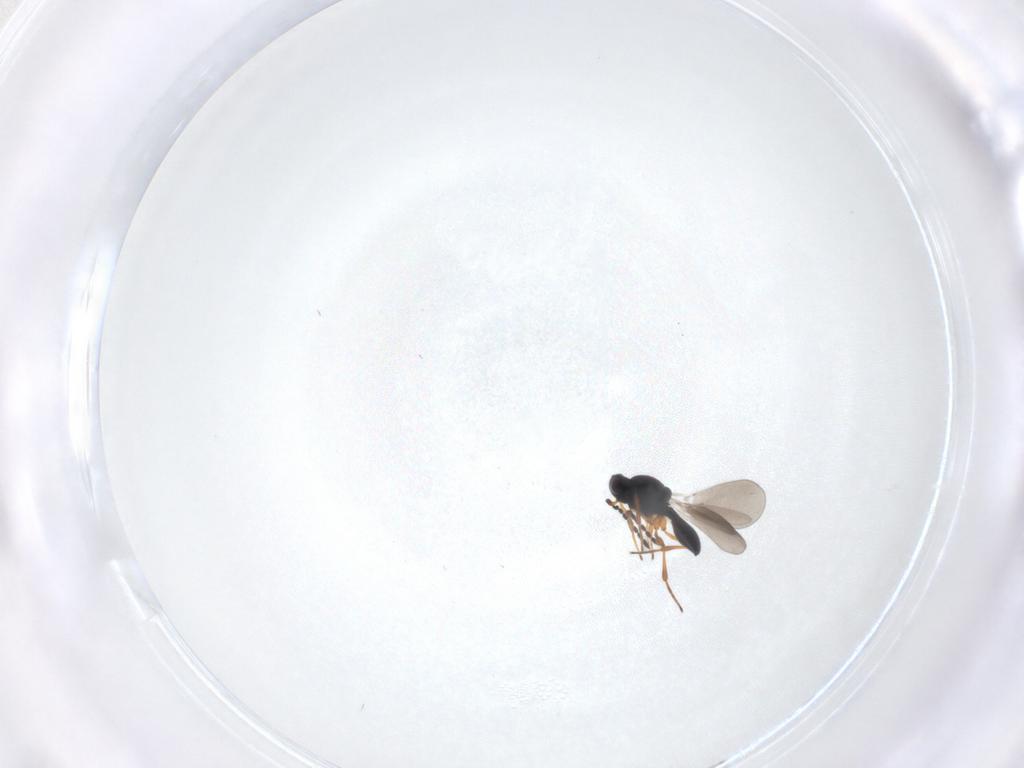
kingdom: Animalia
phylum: Arthropoda
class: Insecta
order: Hymenoptera
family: Platygastridae
